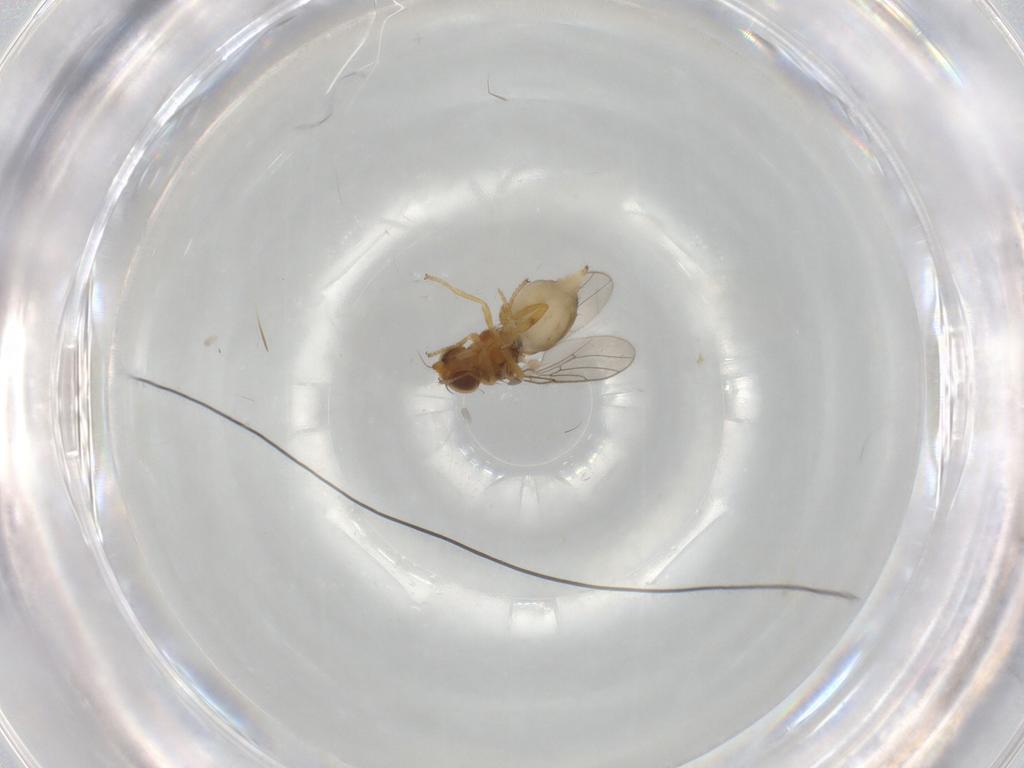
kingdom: Animalia
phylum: Arthropoda
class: Insecta
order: Diptera
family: Chloropidae
